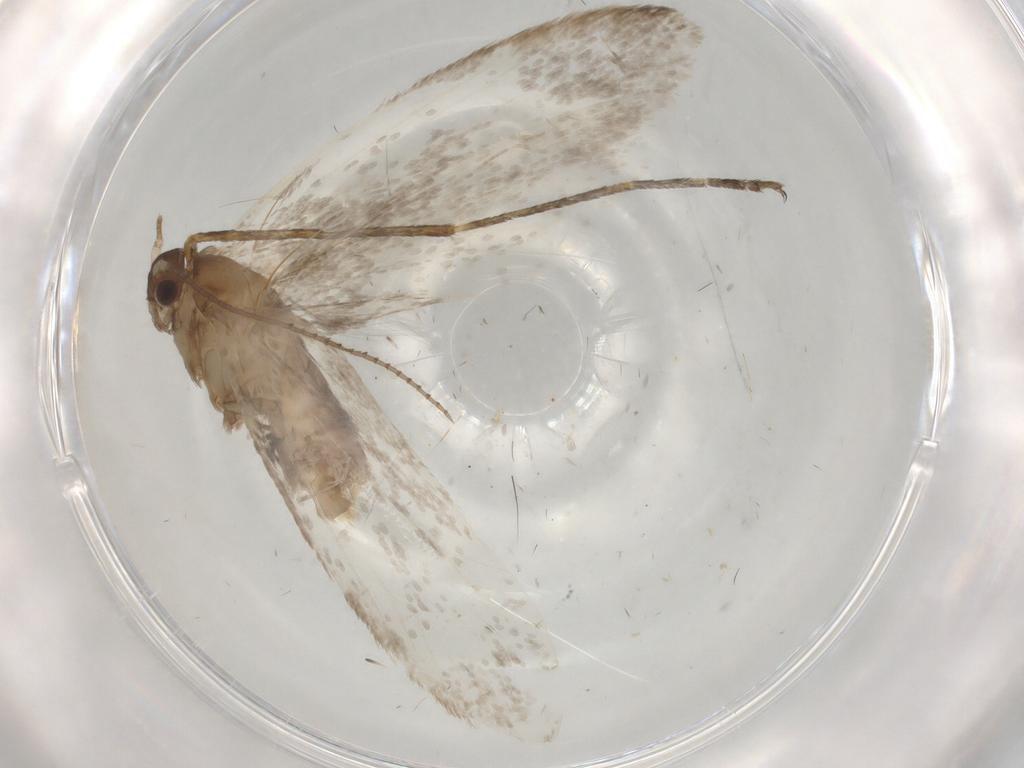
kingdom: Animalia
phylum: Arthropoda
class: Insecta
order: Lepidoptera
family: Dryadaulidae
